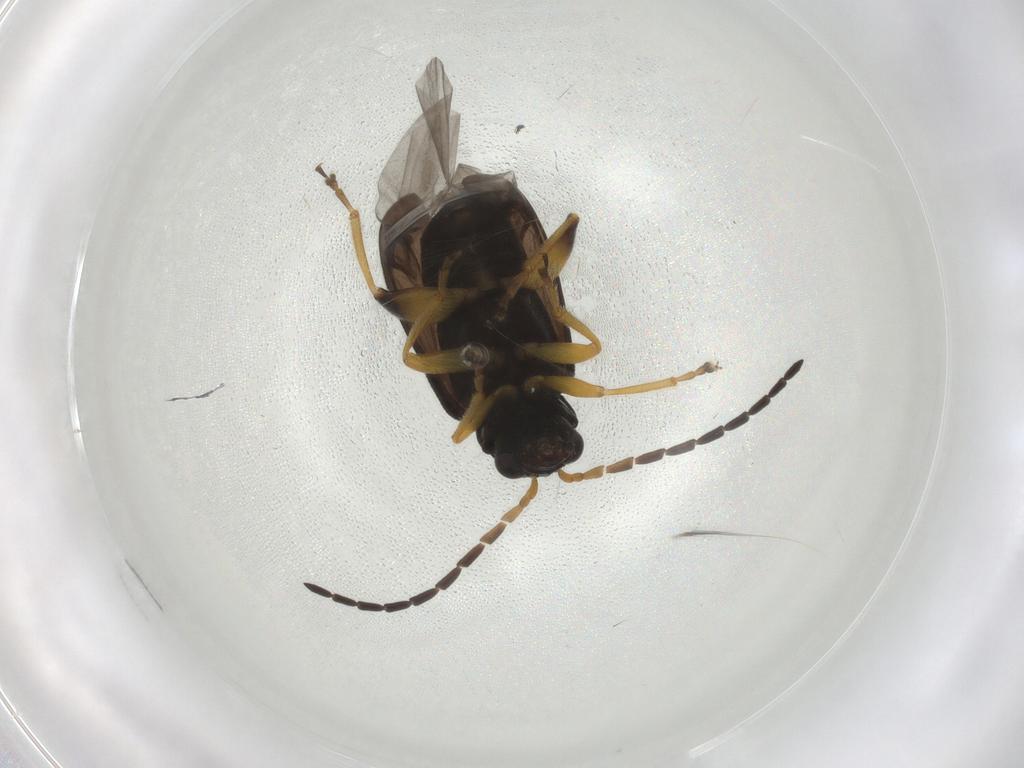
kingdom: Animalia
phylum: Arthropoda
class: Insecta
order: Coleoptera
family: Chrysomelidae
